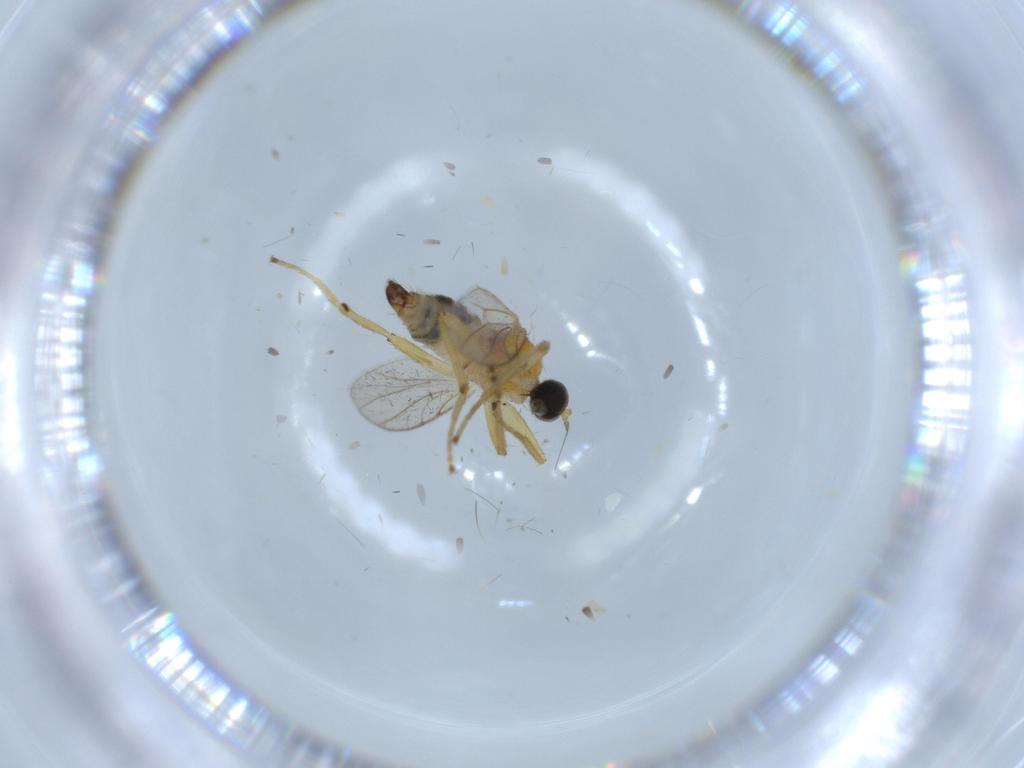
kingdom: Animalia
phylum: Arthropoda
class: Insecta
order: Diptera
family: Hybotidae
